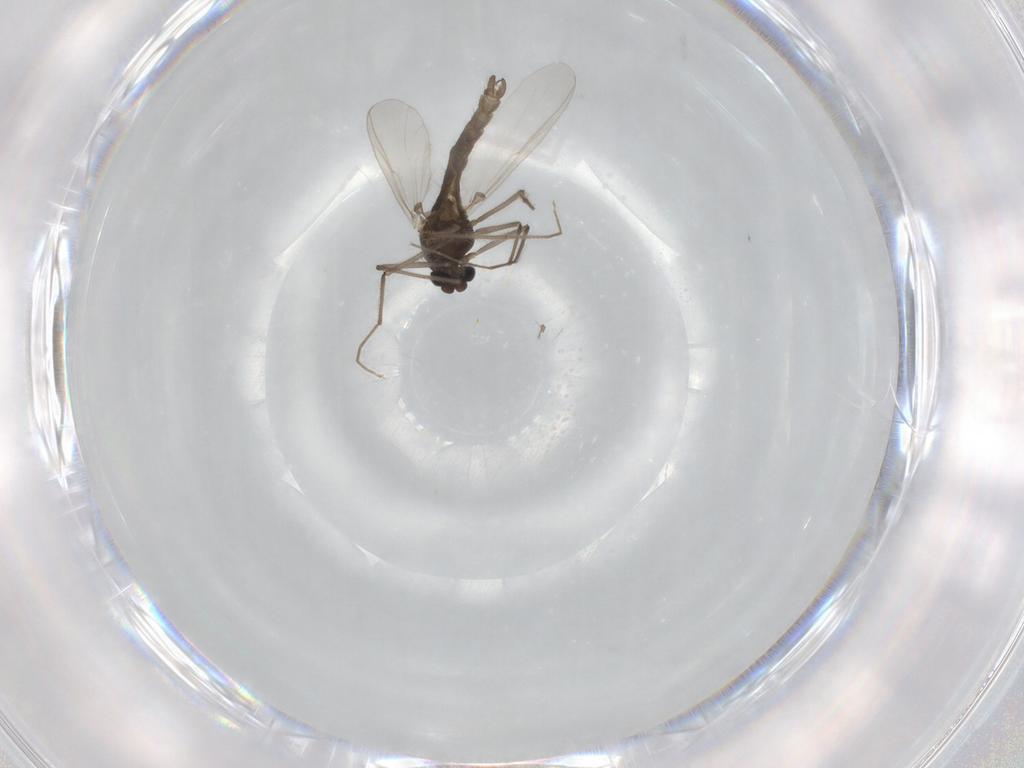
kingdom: Animalia
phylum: Arthropoda
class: Insecta
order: Diptera
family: Chironomidae
